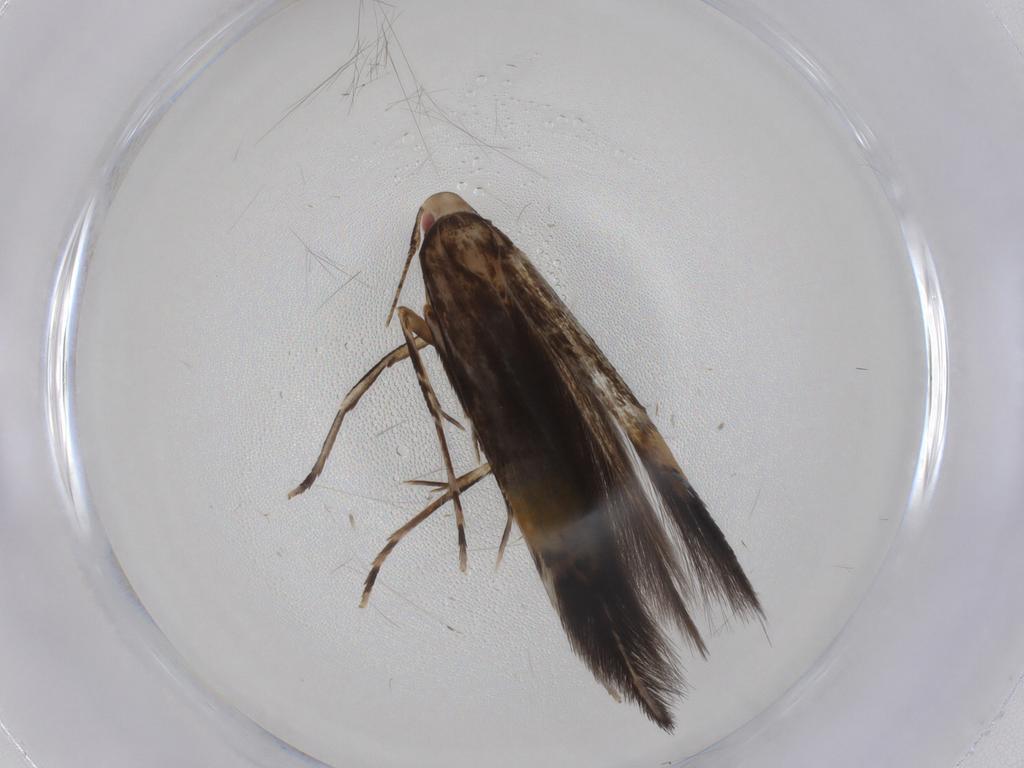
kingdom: Animalia
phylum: Arthropoda
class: Insecta
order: Lepidoptera
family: Cosmopterigidae
